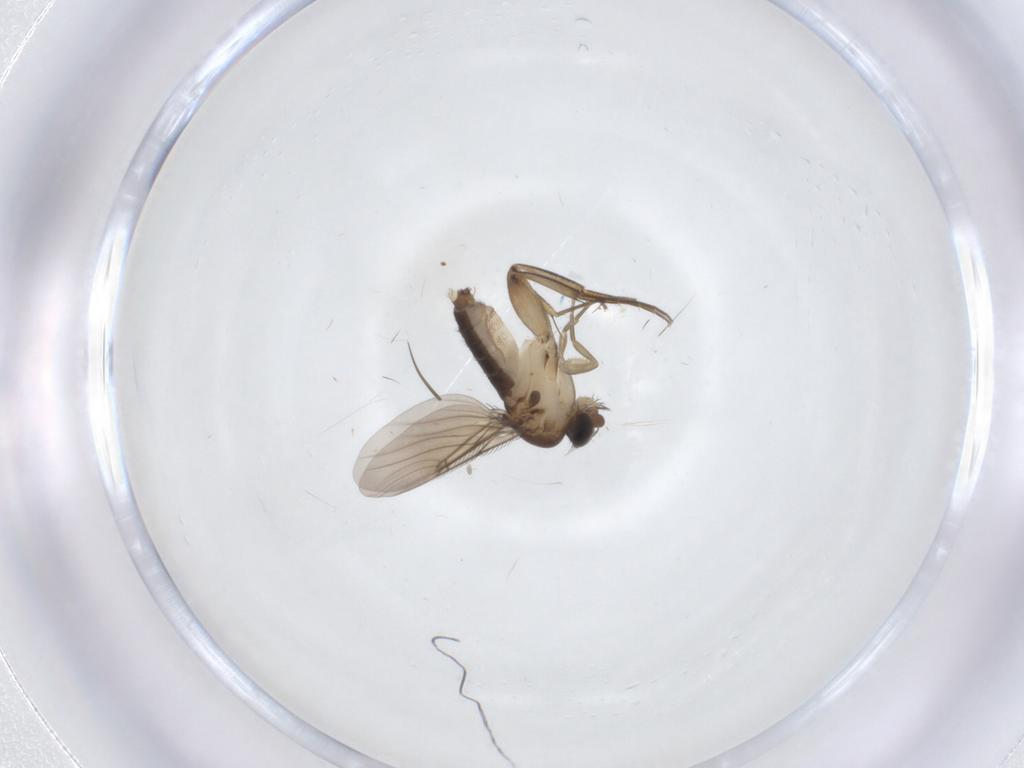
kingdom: Animalia
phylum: Arthropoda
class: Insecta
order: Diptera
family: Phoridae
